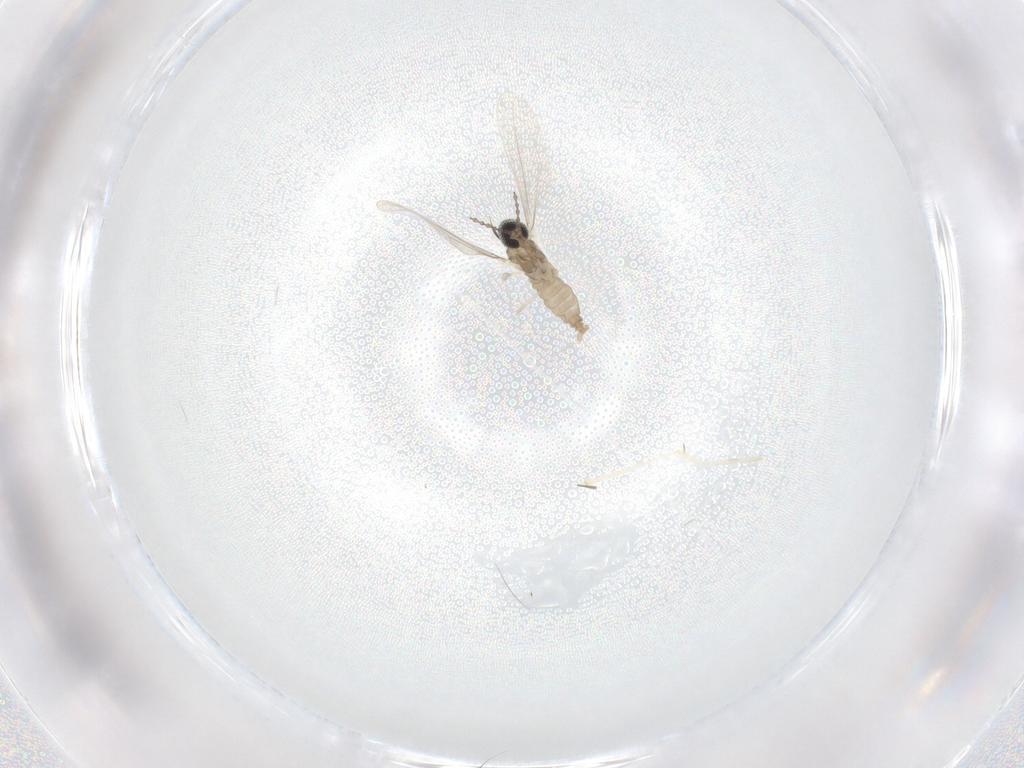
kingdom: Animalia
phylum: Arthropoda
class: Insecta
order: Diptera
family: Cecidomyiidae
